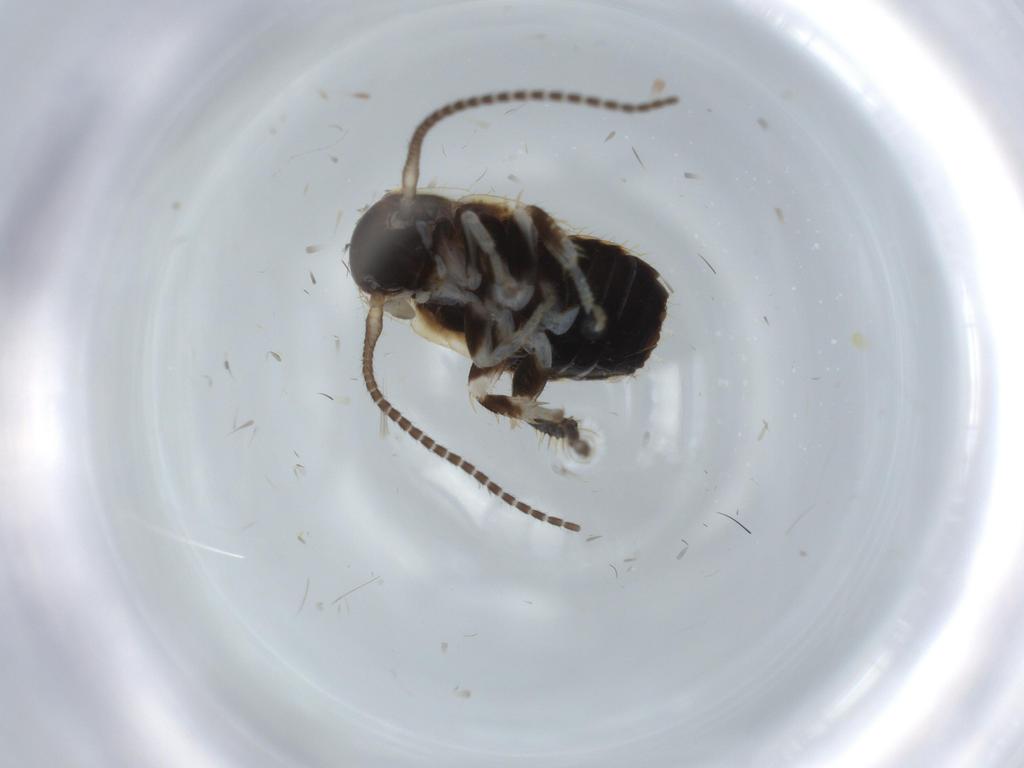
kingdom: Animalia
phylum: Arthropoda
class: Insecta
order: Blattodea
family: Ectobiidae
